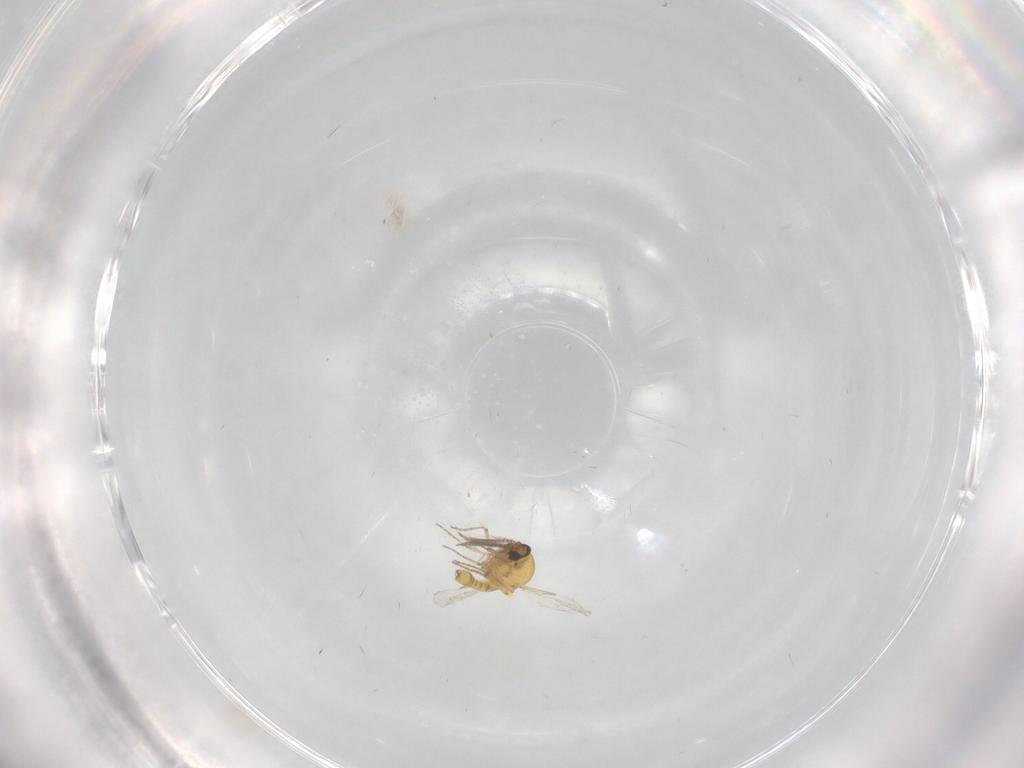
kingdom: Animalia
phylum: Arthropoda
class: Insecta
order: Diptera
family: Ceratopogonidae
